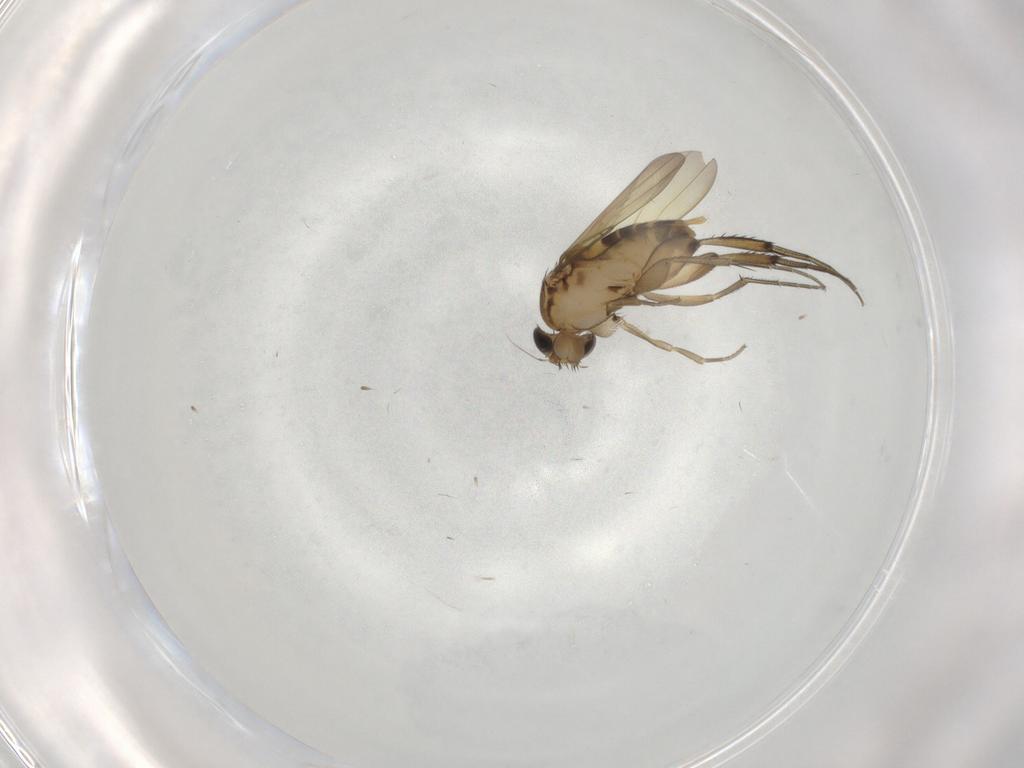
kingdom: Animalia
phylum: Arthropoda
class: Insecta
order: Diptera
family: Phoridae
